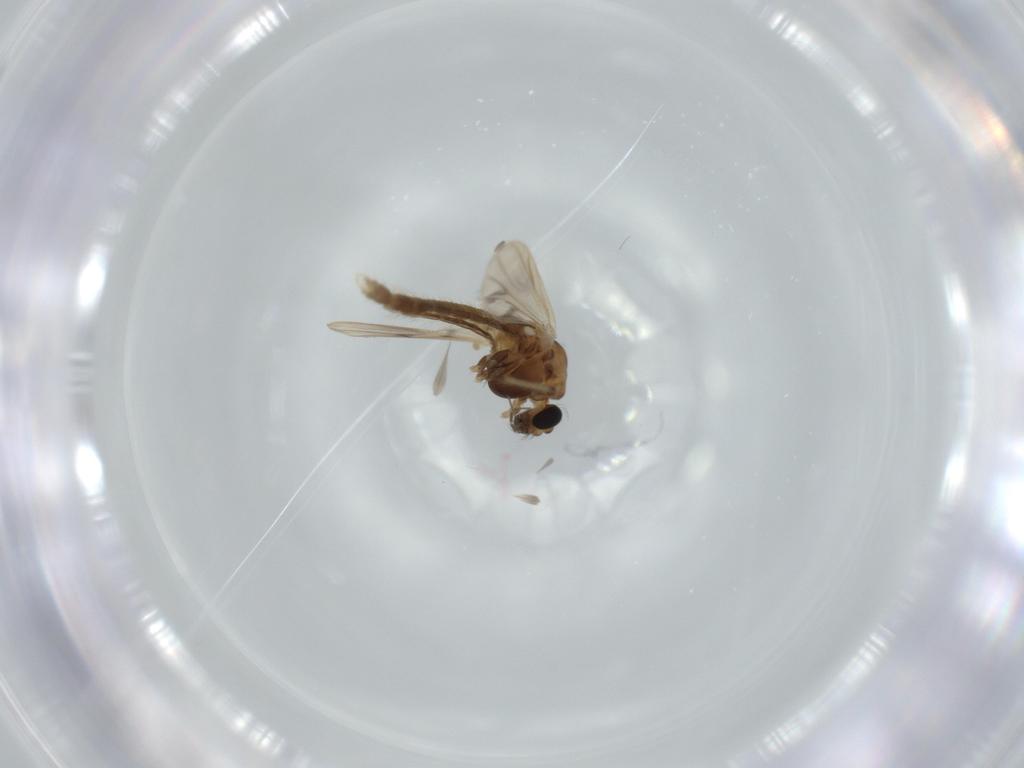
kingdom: Animalia
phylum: Arthropoda
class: Insecta
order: Diptera
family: Chironomidae
